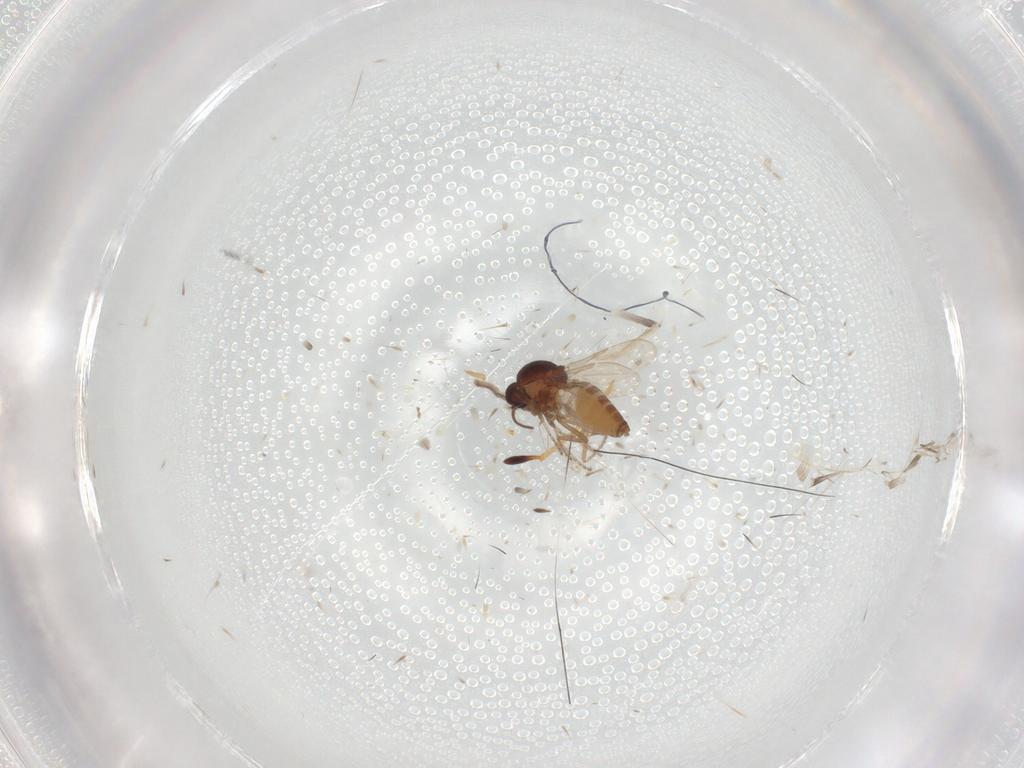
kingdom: Animalia
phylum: Arthropoda
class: Insecta
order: Diptera
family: Ceratopogonidae
